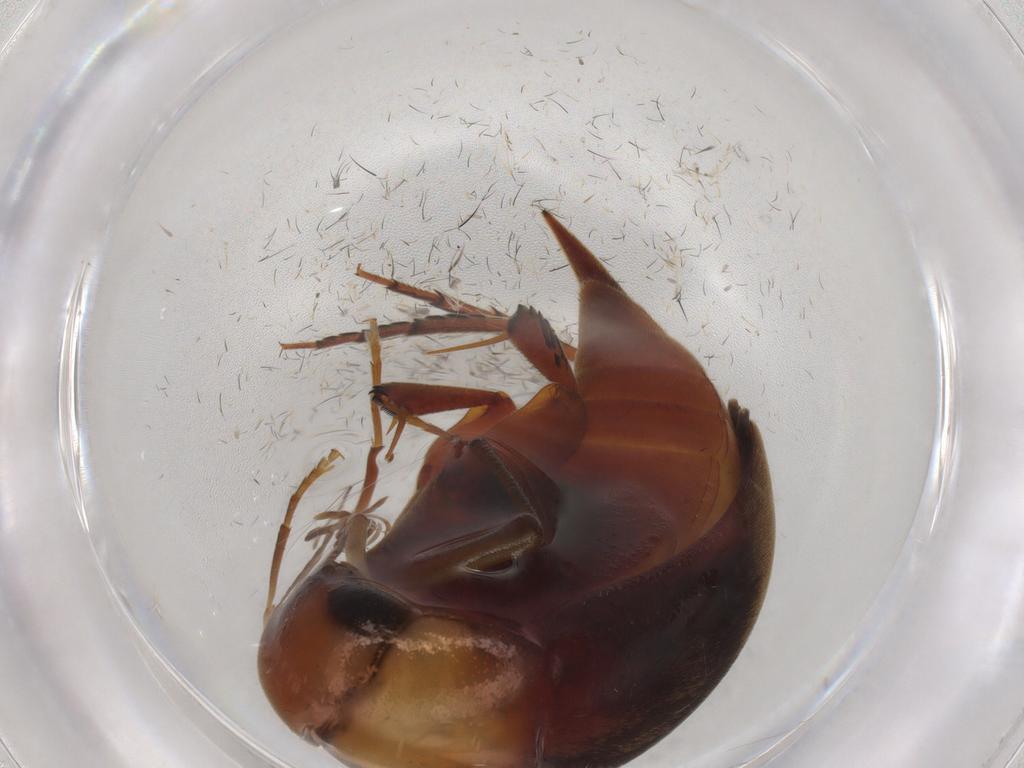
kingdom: Animalia
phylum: Arthropoda
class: Insecta
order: Coleoptera
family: Mordellidae
